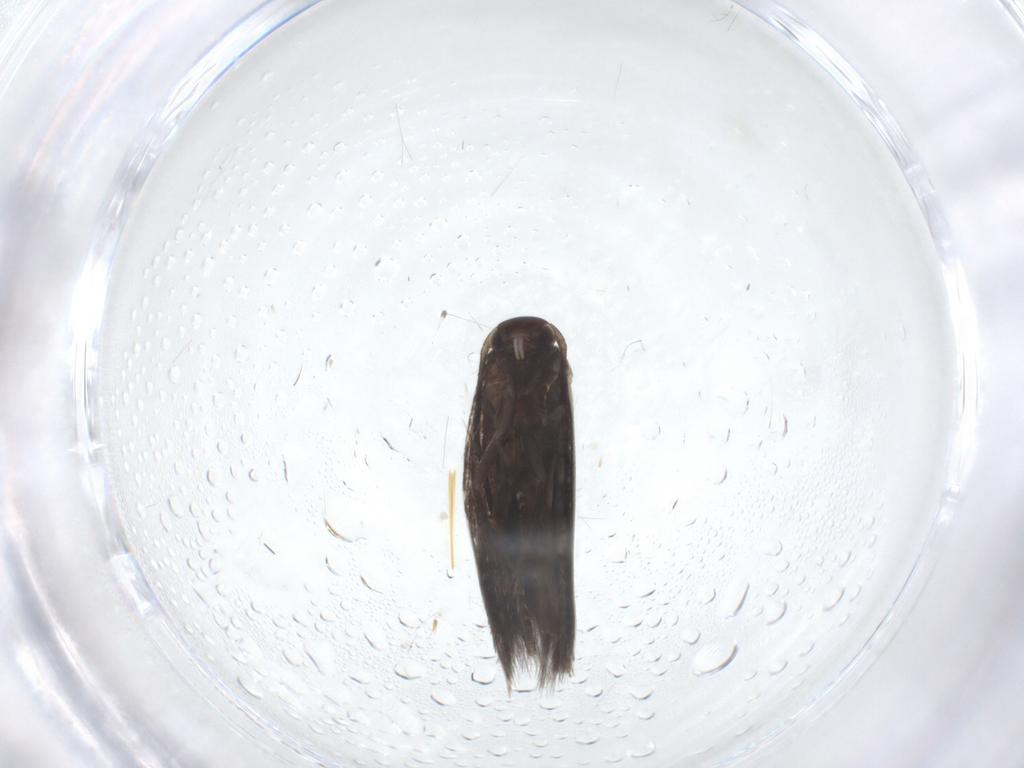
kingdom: Animalia
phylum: Arthropoda
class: Insecta
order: Lepidoptera
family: Elachistidae
